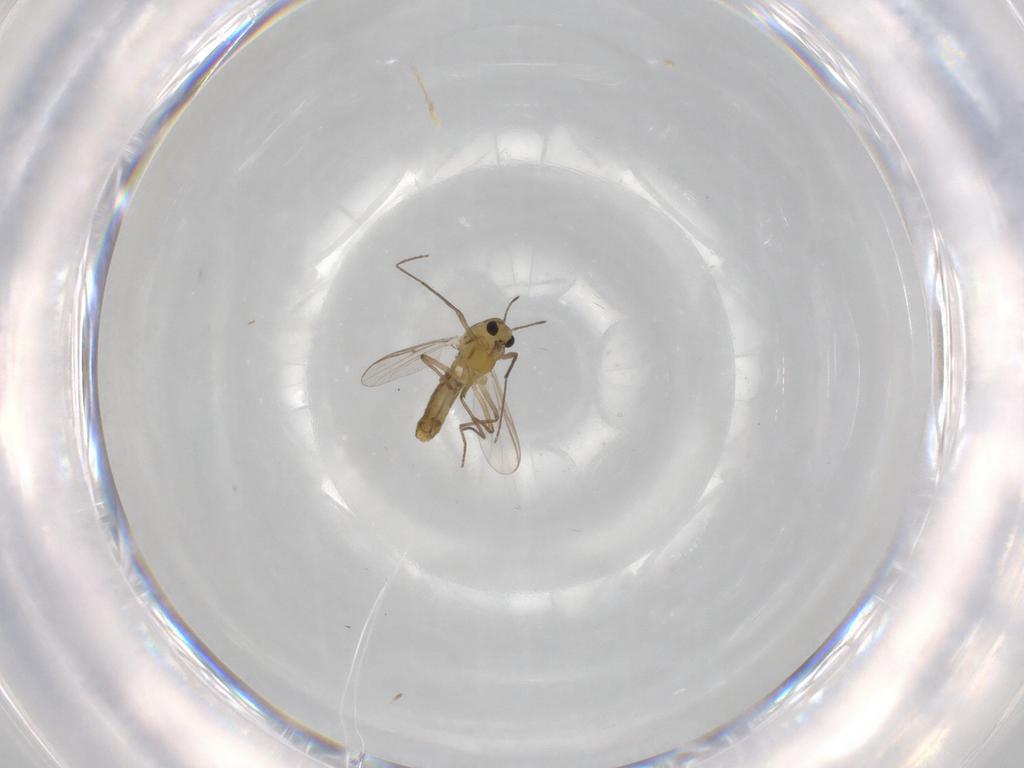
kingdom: Animalia
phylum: Arthropoda
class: Insecta
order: Diptera
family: Chironomidae
